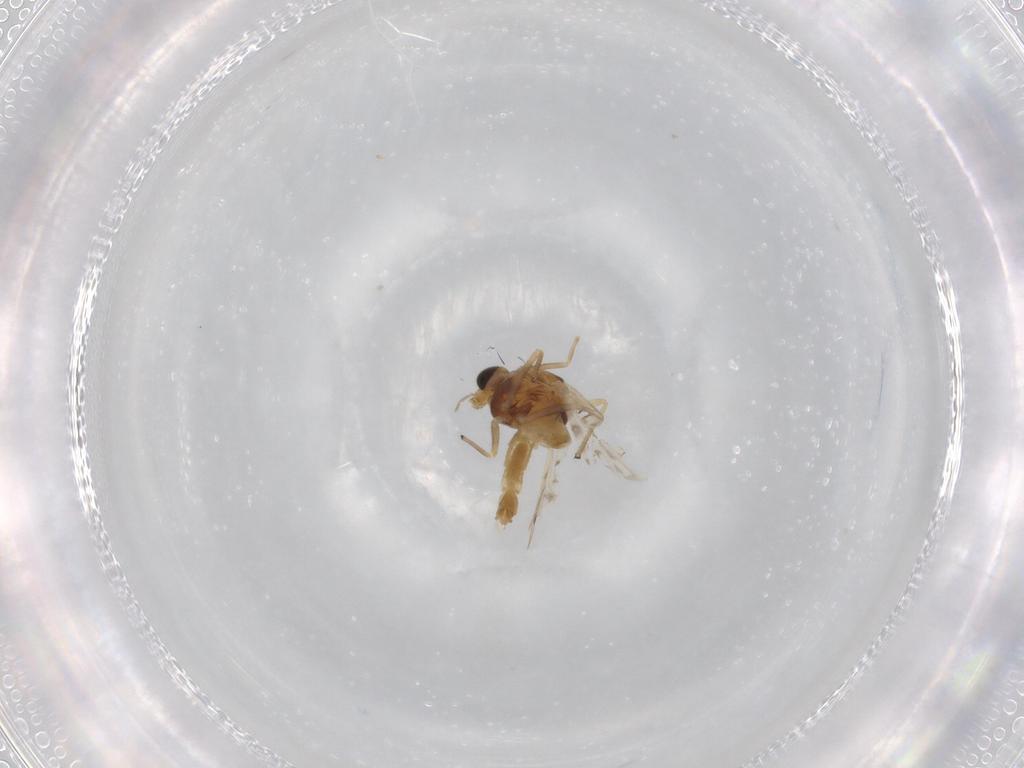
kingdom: Animalia
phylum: Arthropoda
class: Insecta
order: Diptera
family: Chironomidae
